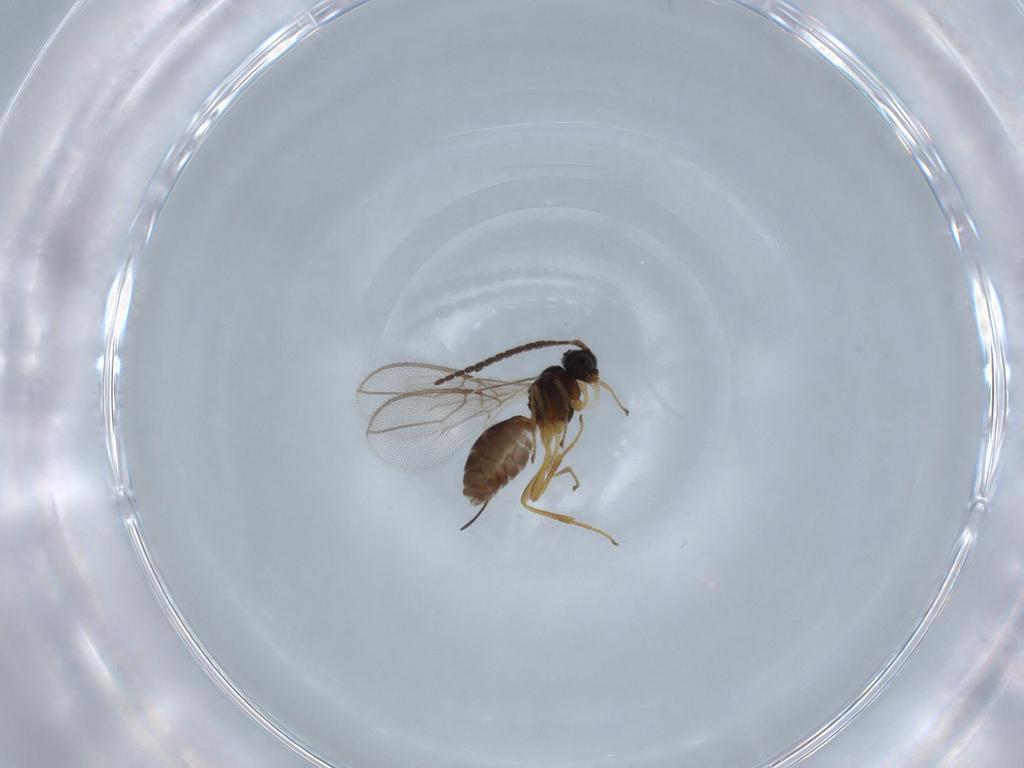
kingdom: Animalia
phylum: Arthropoda
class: Insecta
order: Hymenoptera
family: Braconidae
